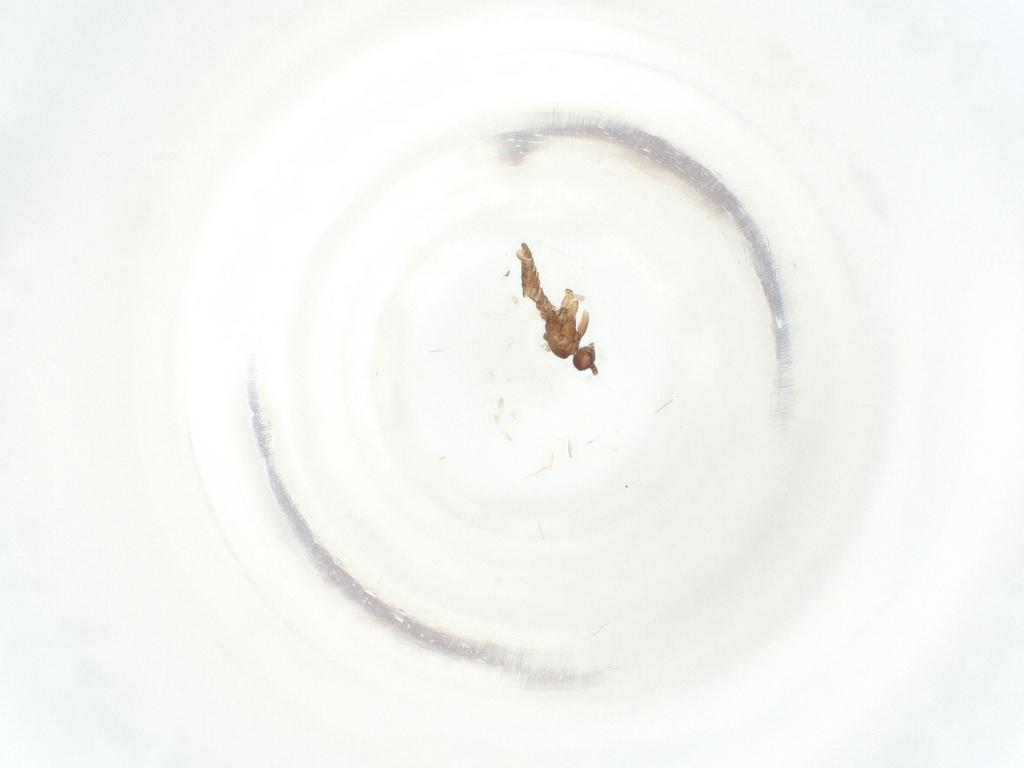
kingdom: Animalia
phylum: Arthropoda
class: Insecta
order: Diptera
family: Sciaridae
